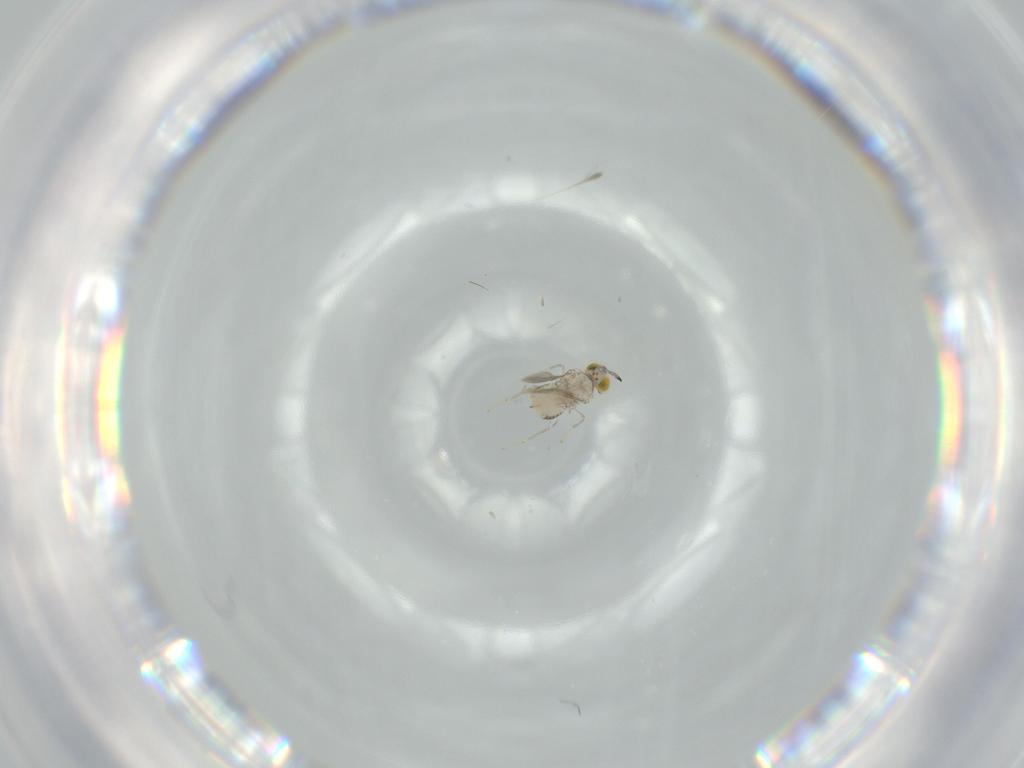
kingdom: Animalia
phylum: Arthropoda
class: Insecta
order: Hymenoptera
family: Aphelinidae
